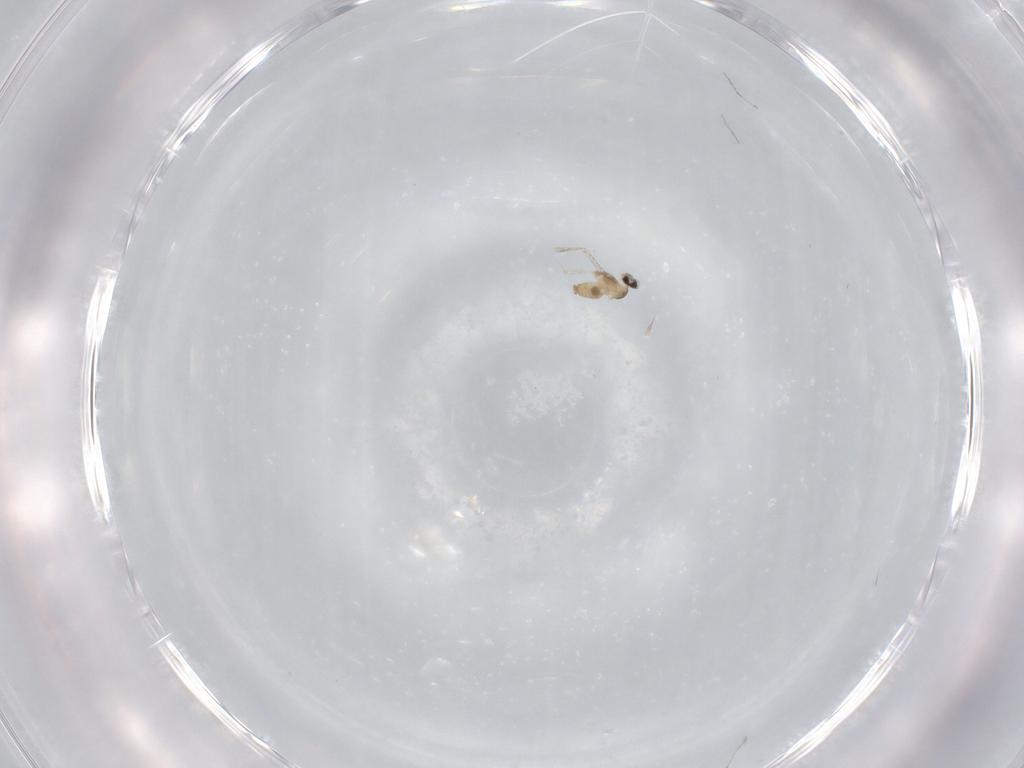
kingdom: Animalia
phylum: Arthropoda
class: Insecta
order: Diptera
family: Cecidomyiidae
